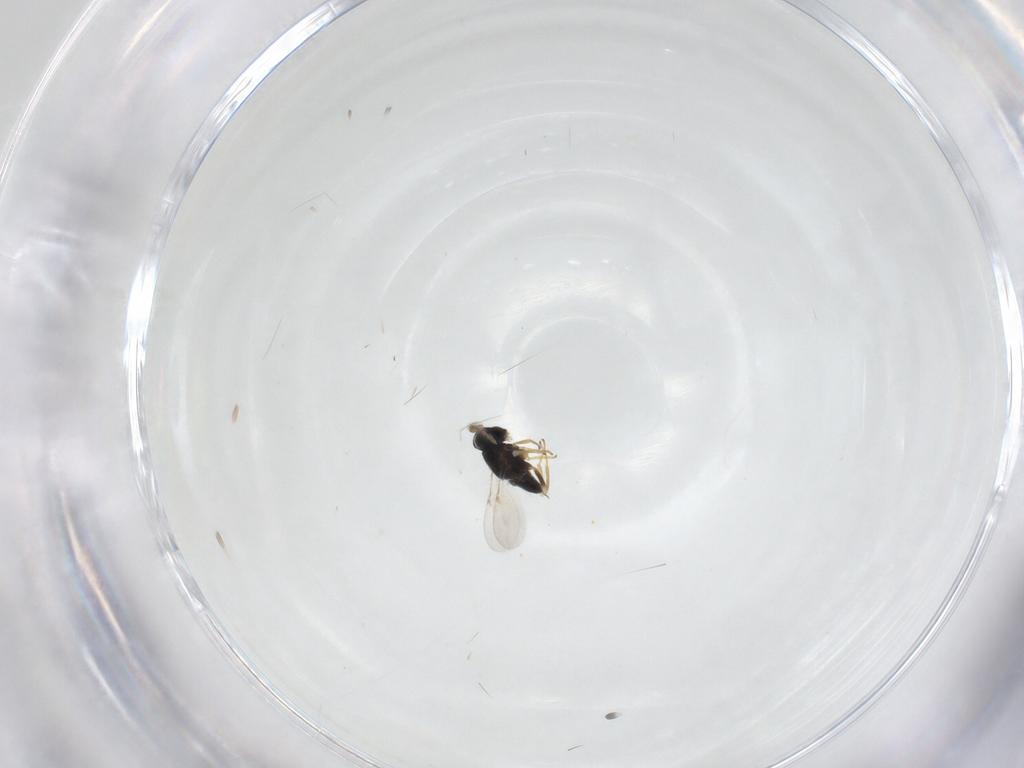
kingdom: Animalia
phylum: Arthropoda
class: Insecta
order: Hymenoptera
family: Encyrtidae
